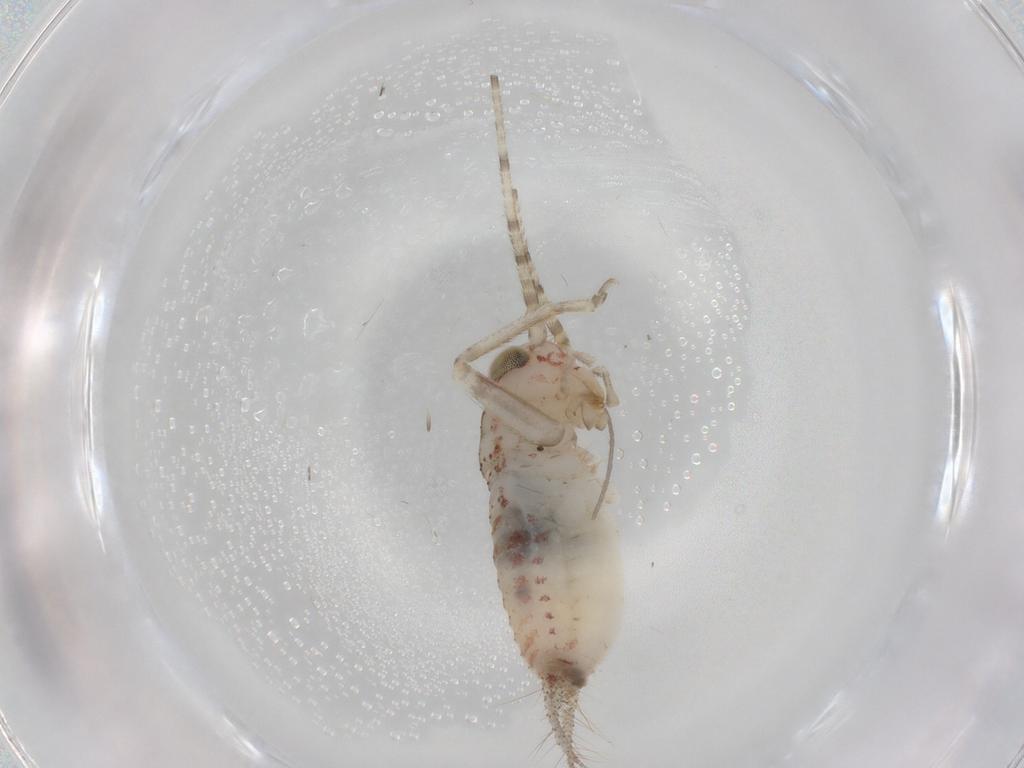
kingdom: Animalia
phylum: Arthropoda
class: Insecta
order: Orthoptera
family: Trigonidiidae
